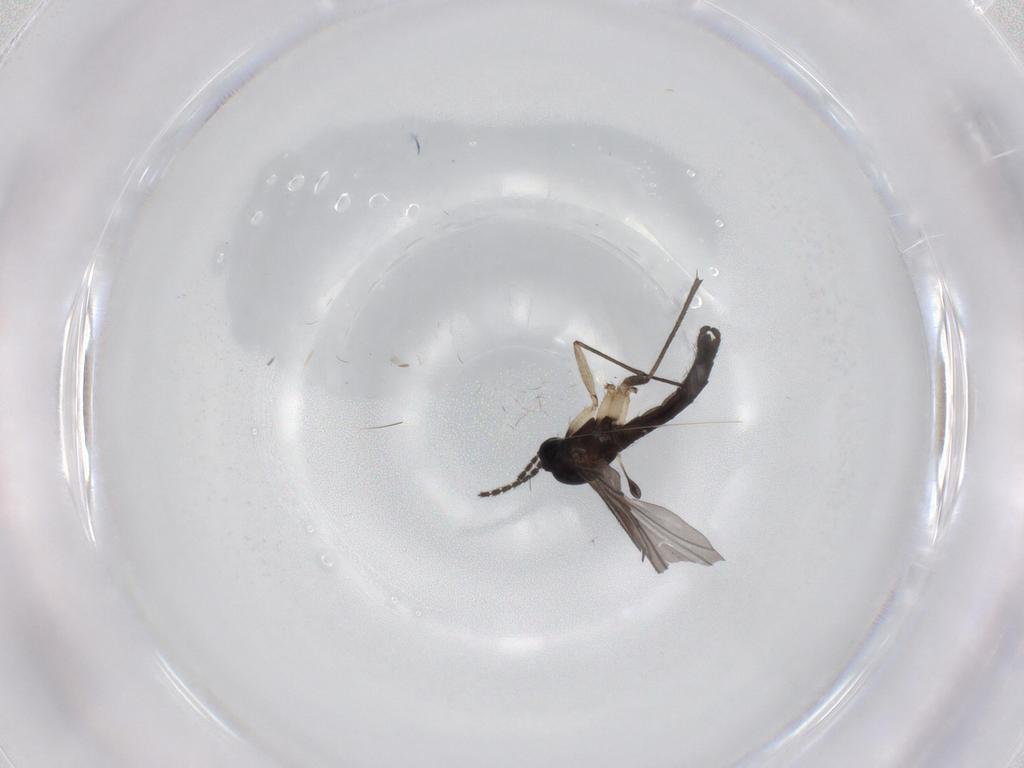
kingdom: Animalia
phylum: Arthropoda
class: Insecta
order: Diptera
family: Sciaridae
